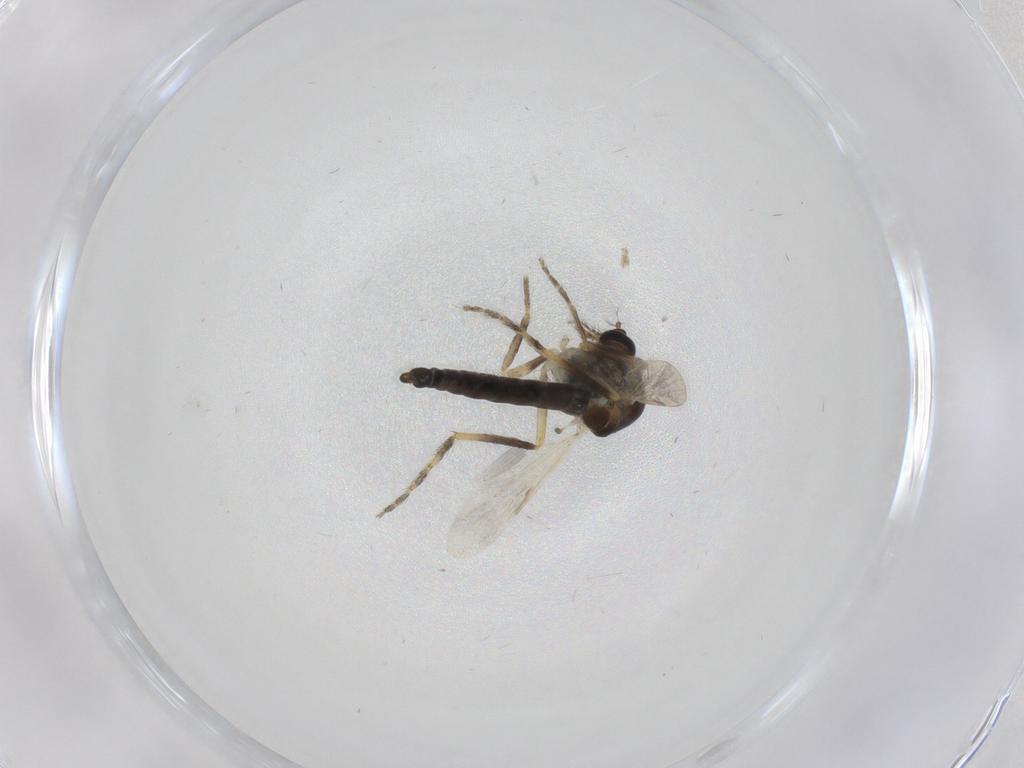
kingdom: Animalia
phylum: Arthropoda
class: Insecta
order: Diptera
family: Ceratopogonidae
